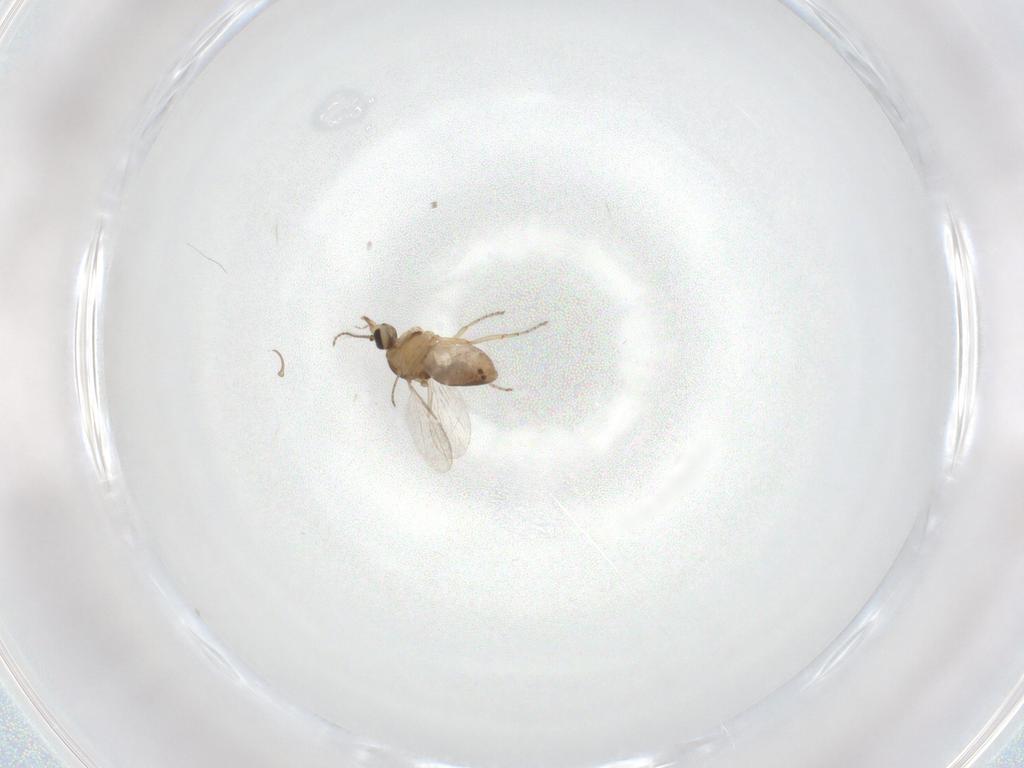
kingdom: Animalia
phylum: Arthropoda
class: Insecta
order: Diptera
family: Ceratopogonidae
